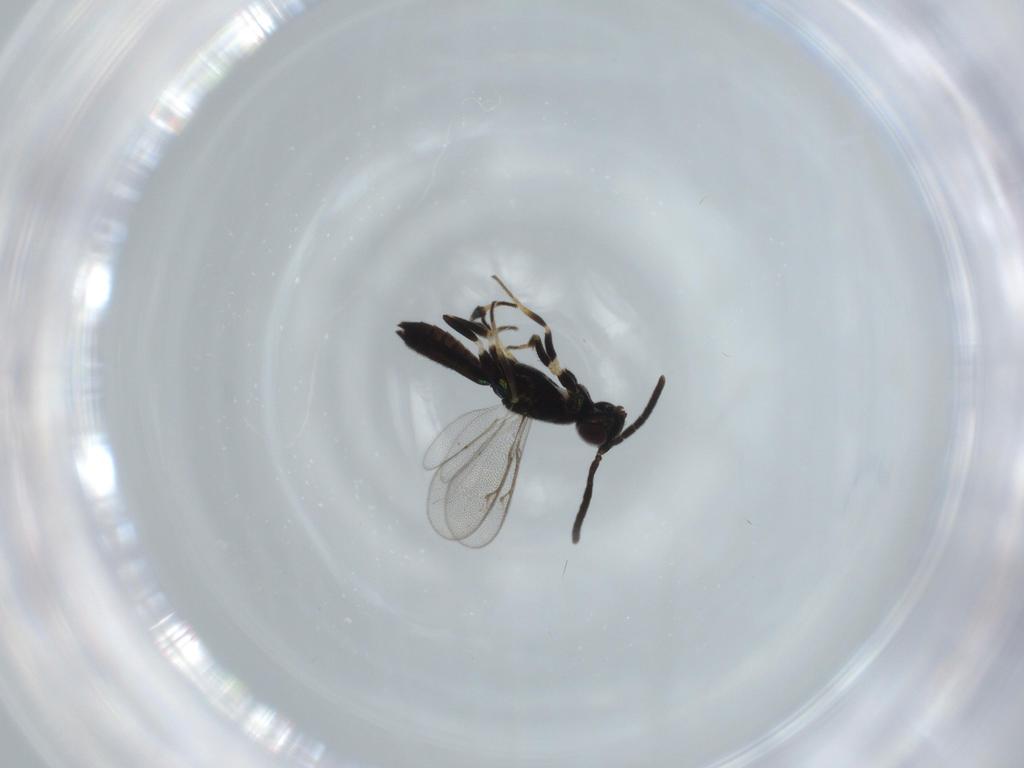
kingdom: Animalia
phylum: Arthropoda
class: Insecta
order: Hymenoptera
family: Eupelmidae
